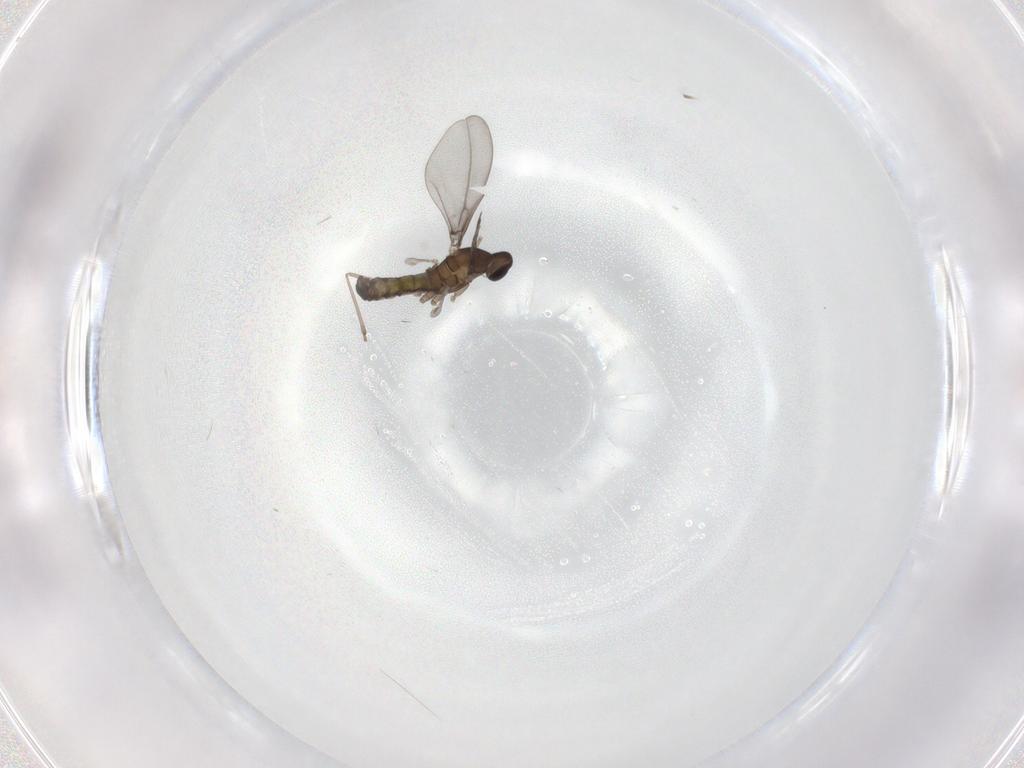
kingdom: Animalia
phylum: Arthropoda
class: Insecta
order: Diptera
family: Cecidomyiidae
